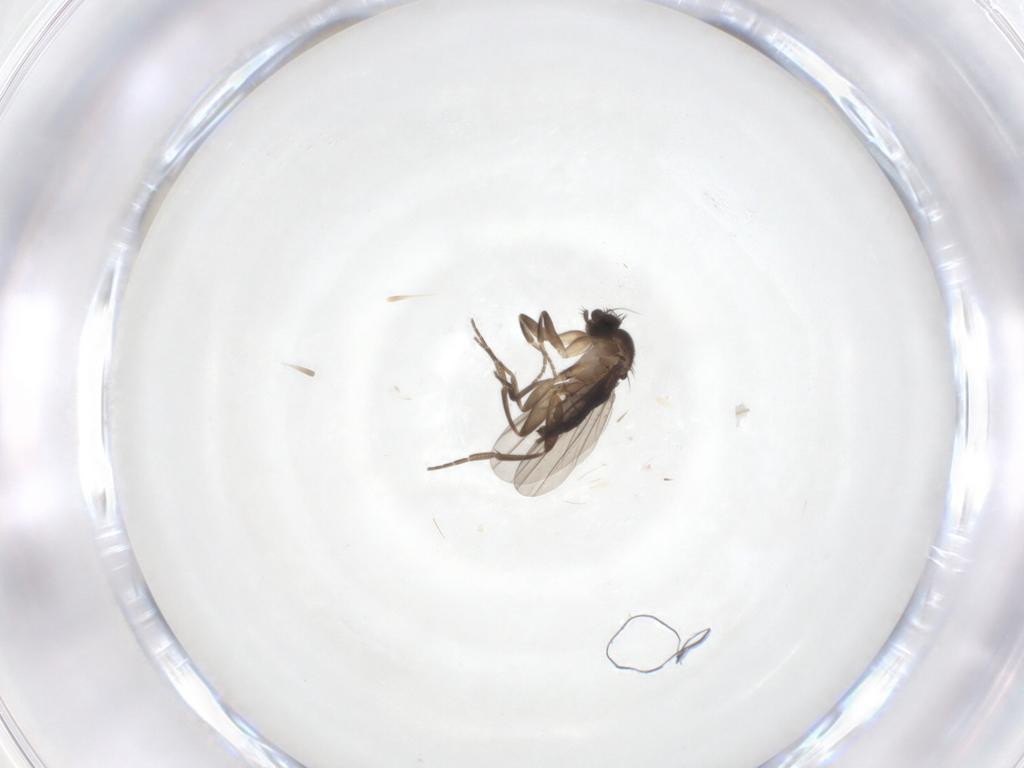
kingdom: Animalia
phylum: Arthropoda
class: Insecta
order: Diptera
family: Phoridae
